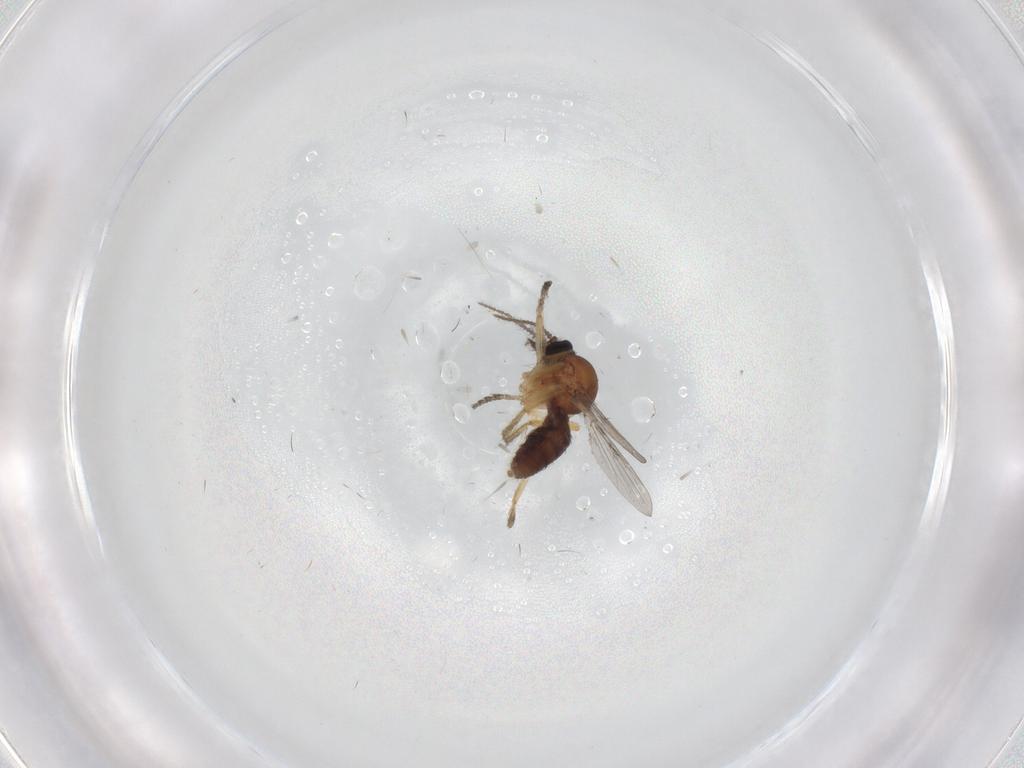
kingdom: Animalia
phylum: Arthropoda
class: Insecta
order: Diptera
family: Ceratopogonidae
